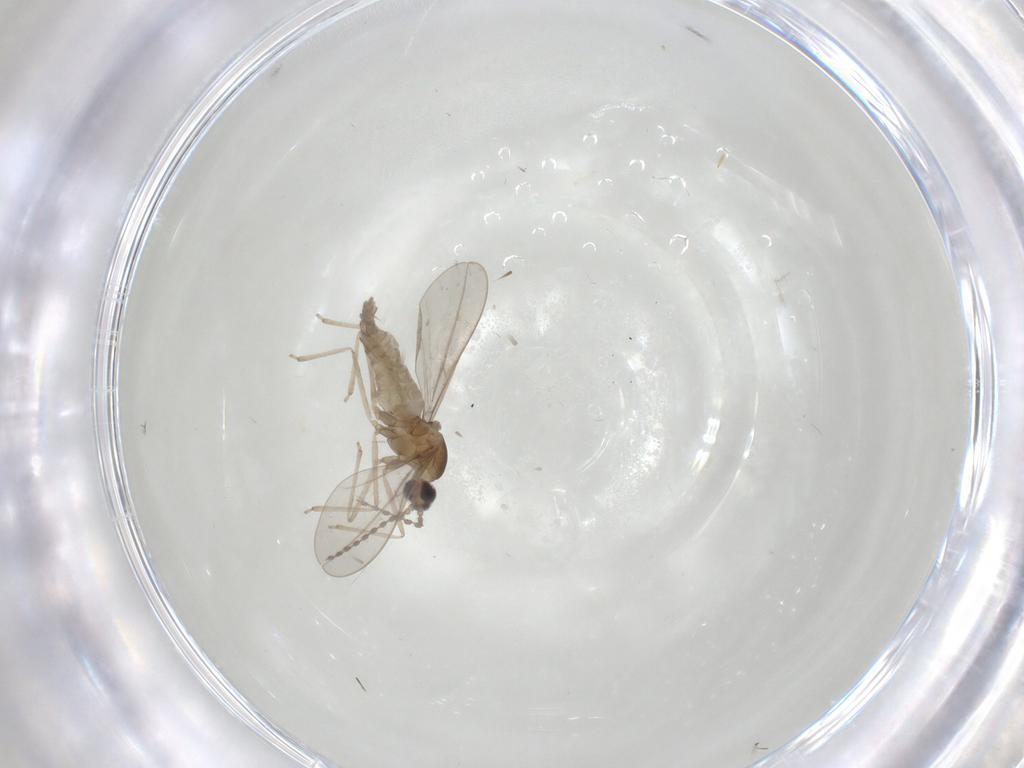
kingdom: Animalia
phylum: Arthropoda
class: Insecta
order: Diptera
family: Cecidomyiidae
